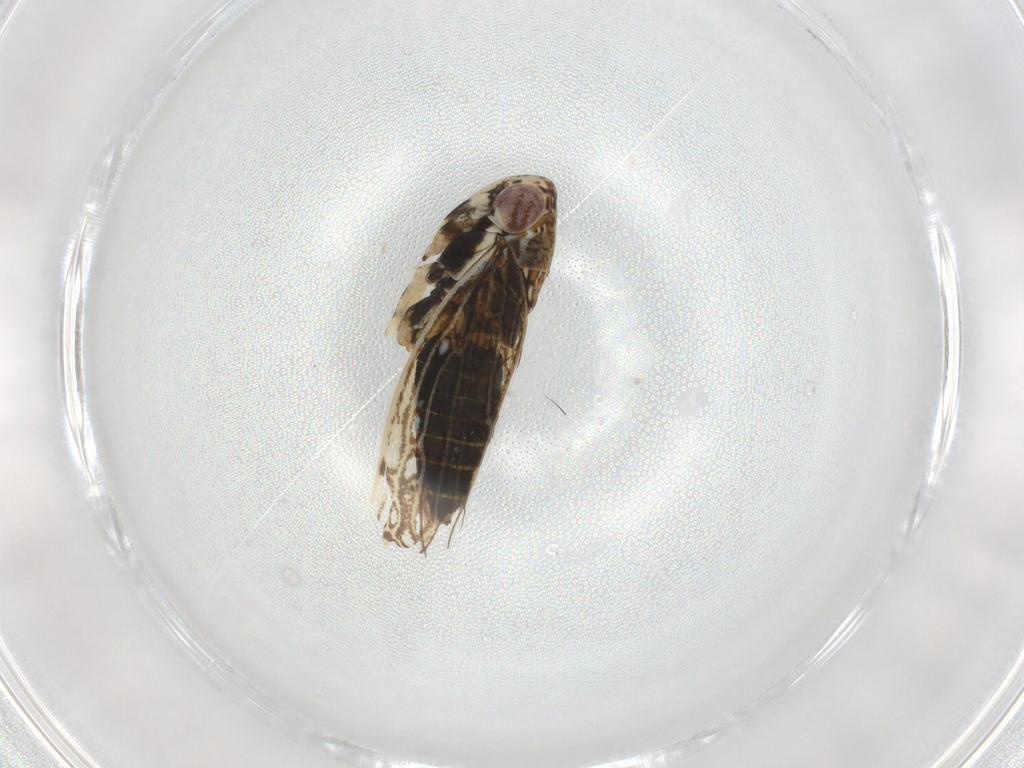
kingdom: Animalia
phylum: Arthropoda
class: Insecta
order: Hemiptera
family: Cicadellidae
